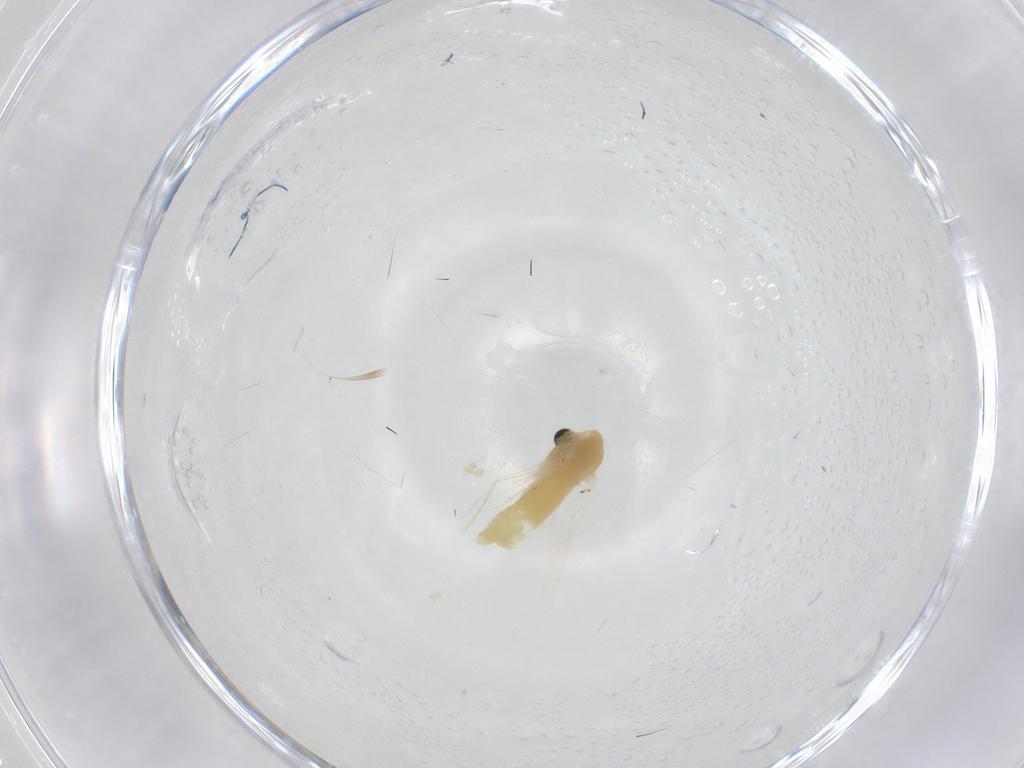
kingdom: Animalia
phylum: Arthropoda
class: Insecta
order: Diptera
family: Chironomidae
